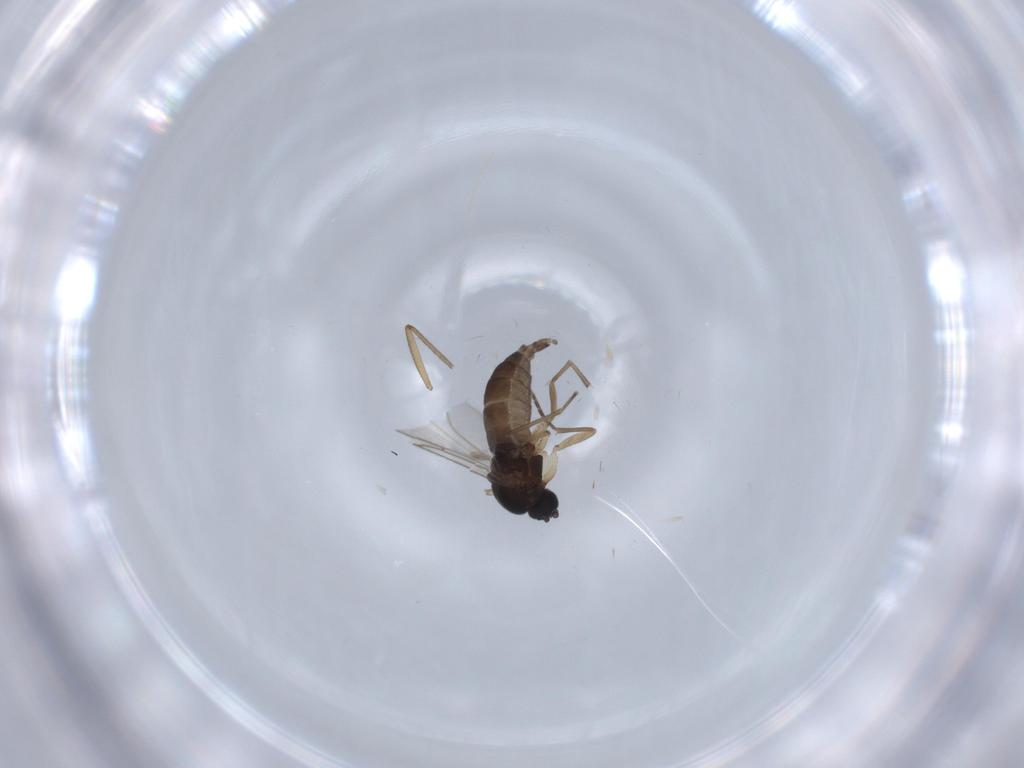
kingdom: Animalia
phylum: Arthropoda
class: Insecta
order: Diptera
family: Sciaridae
